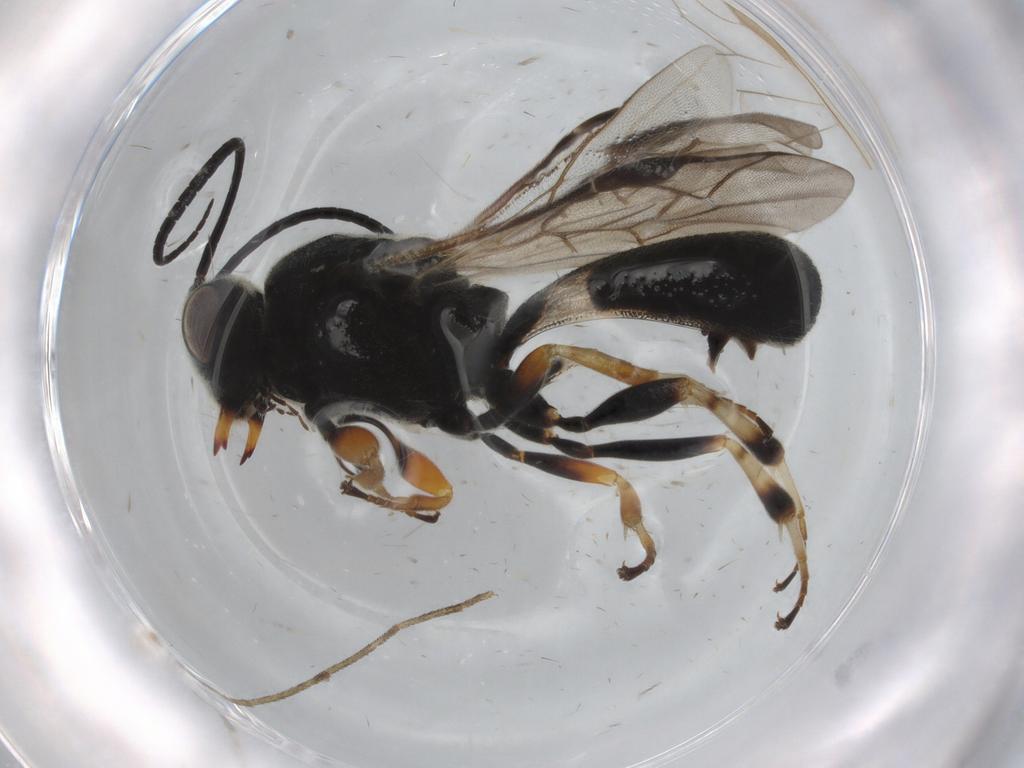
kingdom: Animalia
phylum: Arthropoda
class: Insecta
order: Hymenoptera
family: Braconidae
